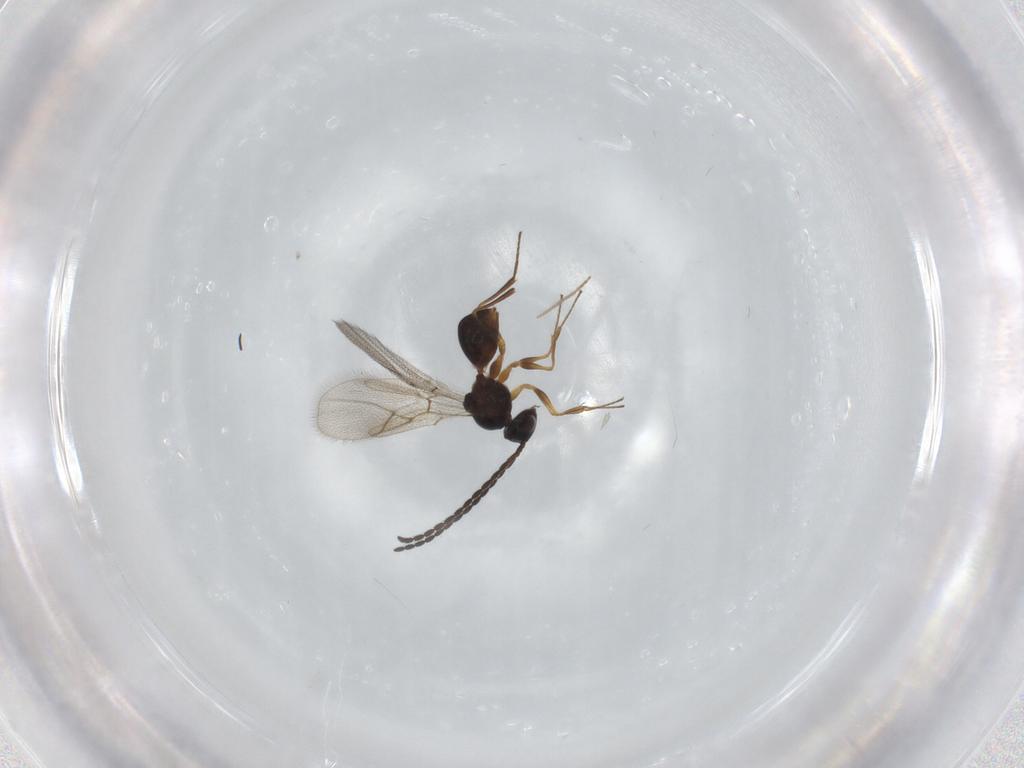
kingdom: Animalia
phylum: Arthropoda
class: Insecta
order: Hymenoptera
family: Figitidae
